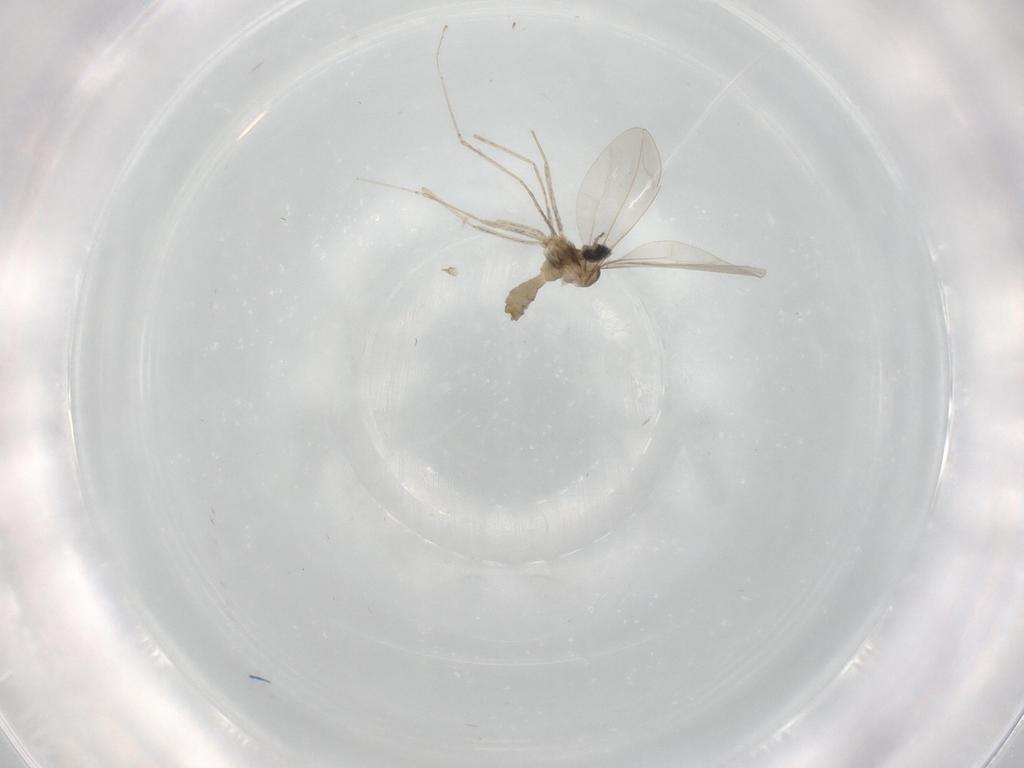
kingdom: Animalia
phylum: Arthropoda
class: Insecta
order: Diptera
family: Cecidomyiidae
